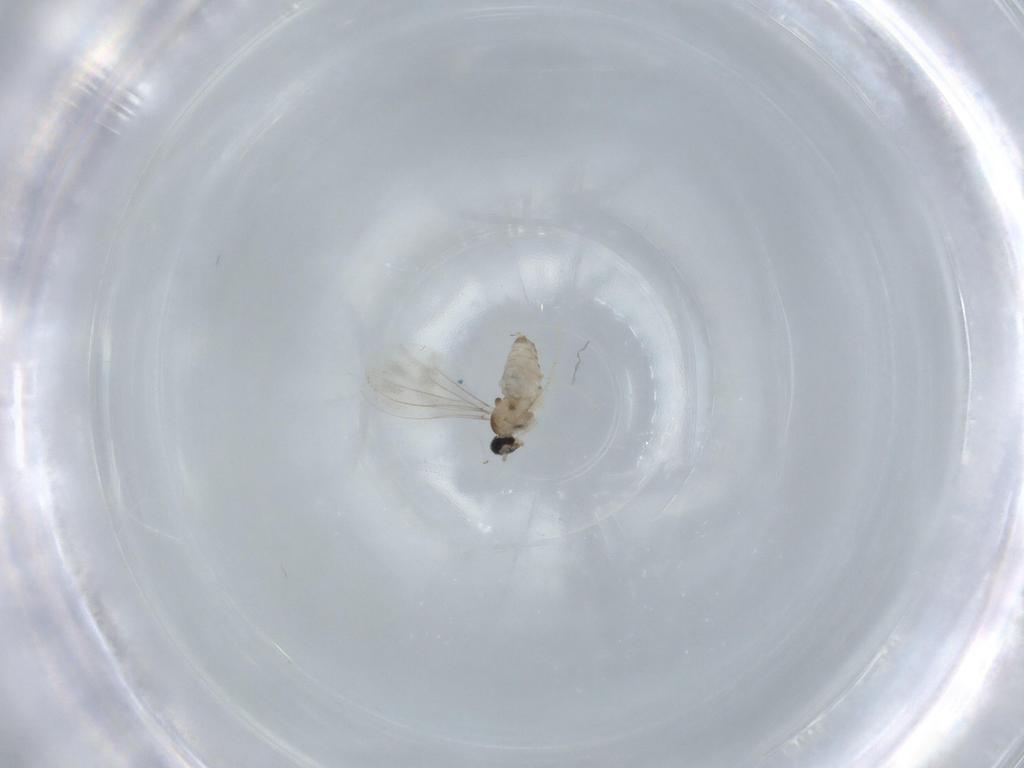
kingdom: Animalia
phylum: Arthropoda
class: Insecta
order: Diptera
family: Cecidomyiidae
